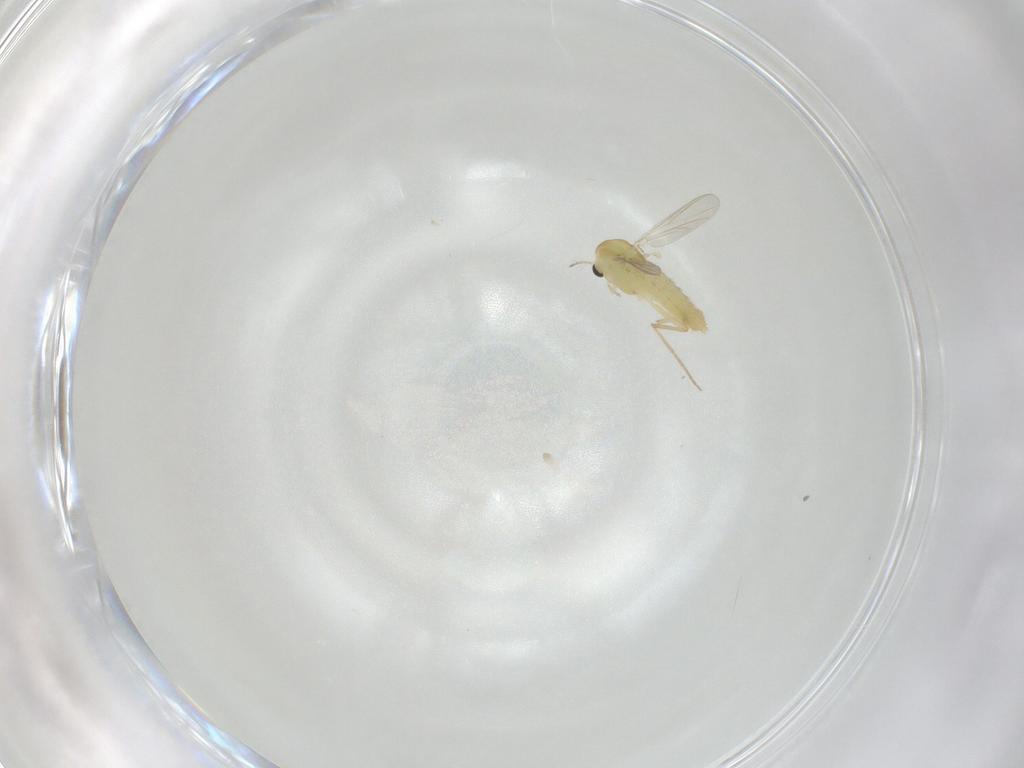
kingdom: Animalia
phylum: Arthropoda
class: Insecta
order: Diptera
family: Chironomidae
